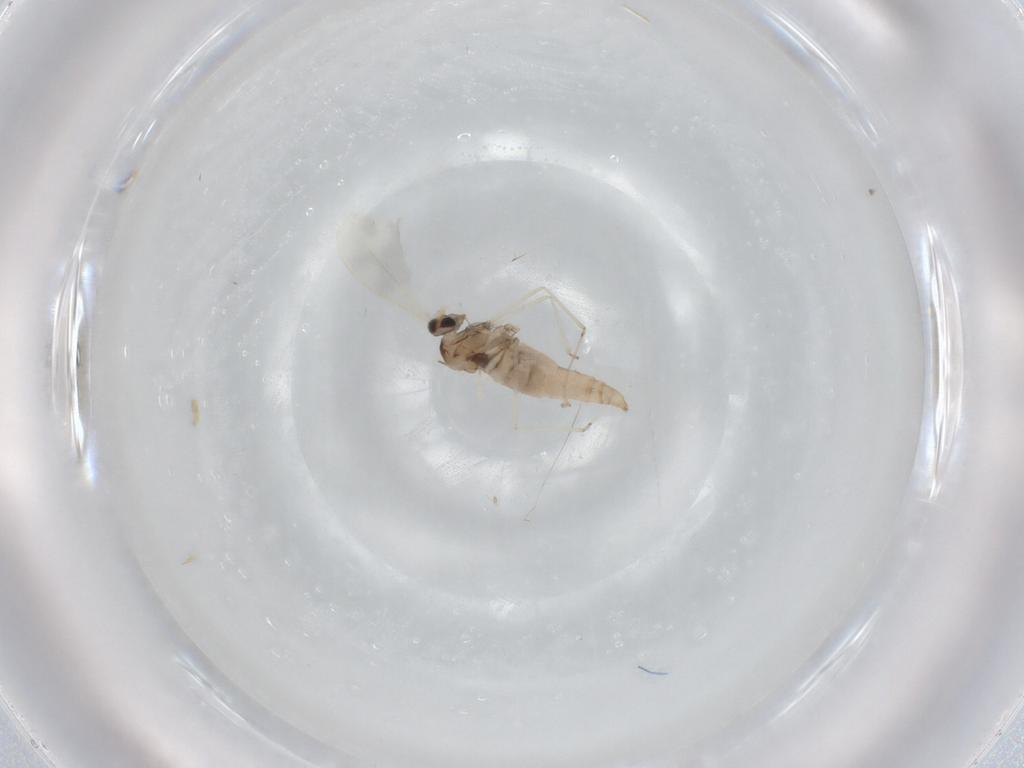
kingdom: Animalia
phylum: Arthropoda
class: Insecta
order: Diptera
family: Cecidomyiidae
